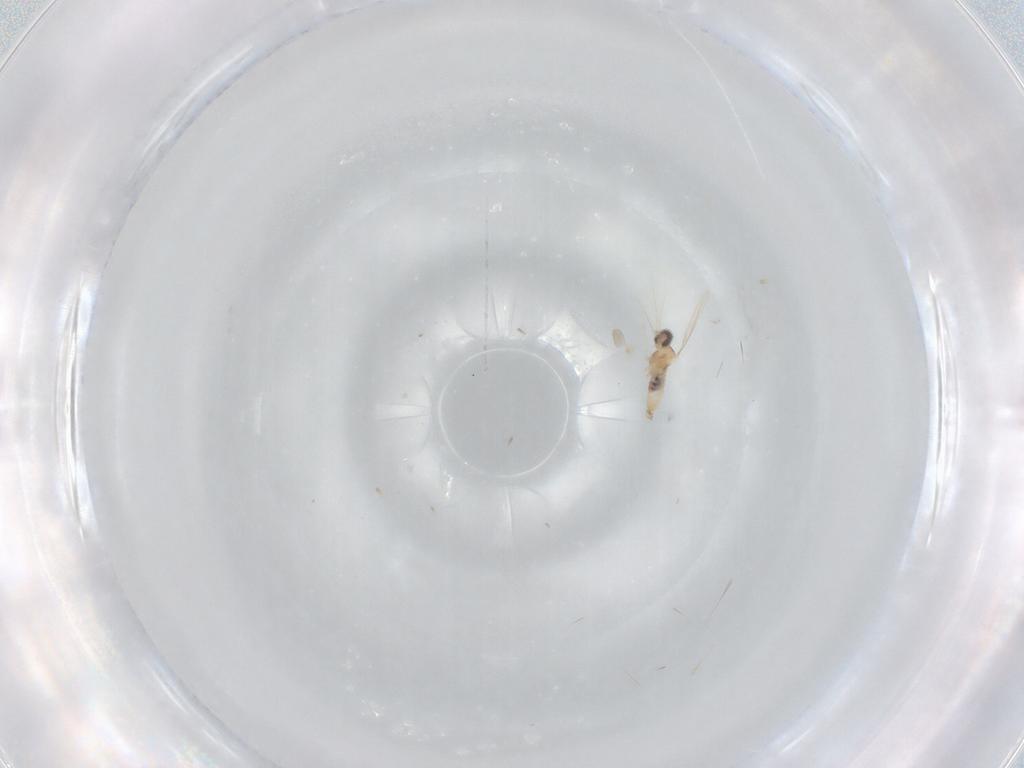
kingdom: Animalia
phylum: Arthropoda
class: Insecta
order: Diptera
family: Cecidomyiidae
